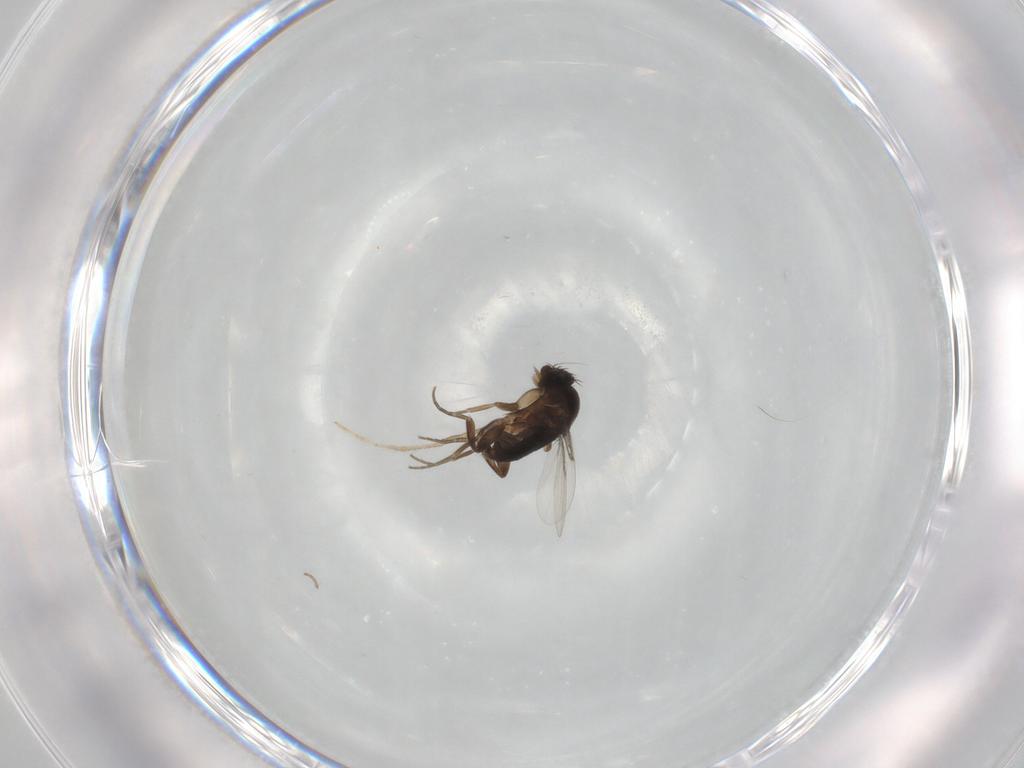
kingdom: Animalia
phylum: Arthropoda
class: Insecta
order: Diptera
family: Phoridae
